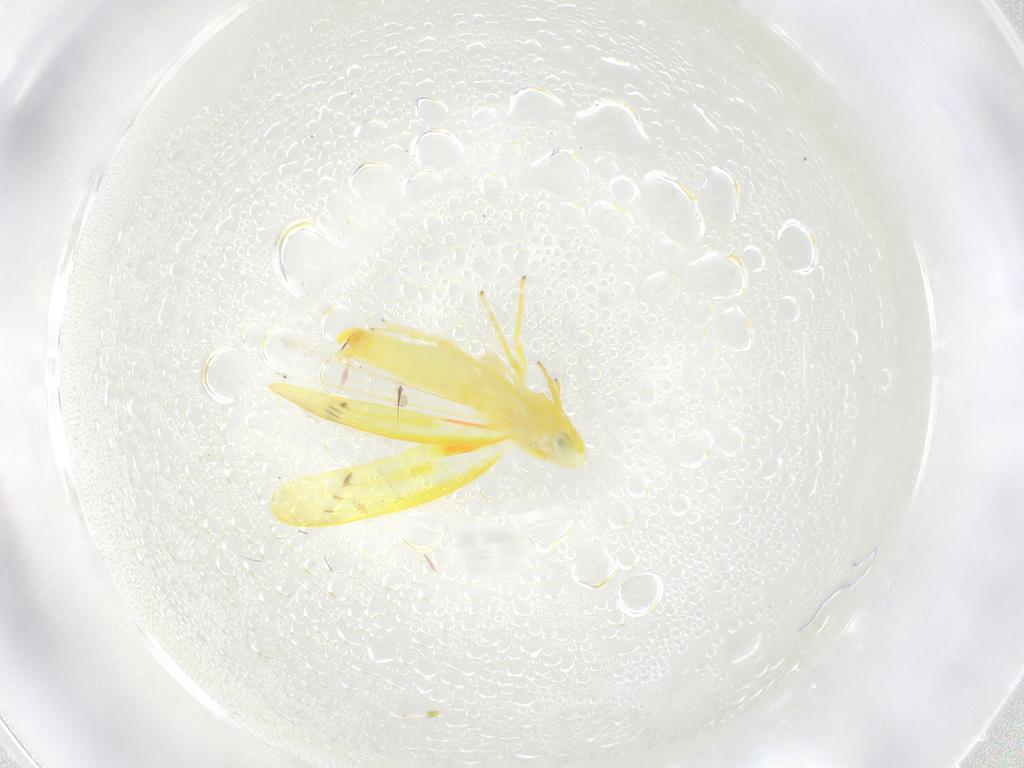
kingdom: Animalia
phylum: Arthropoda
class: Insecta
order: Hemiptera
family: Cicadellidae
